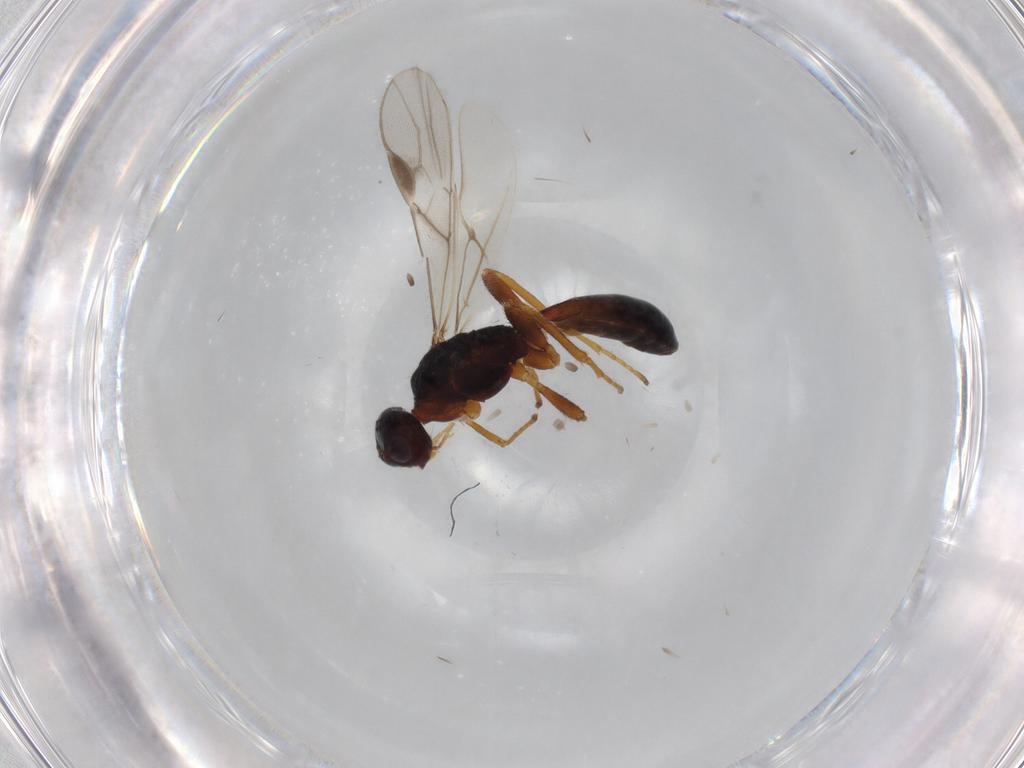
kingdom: Animalia
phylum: Arthropoda
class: Insecta
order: Hymenoptera
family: Braconidae
